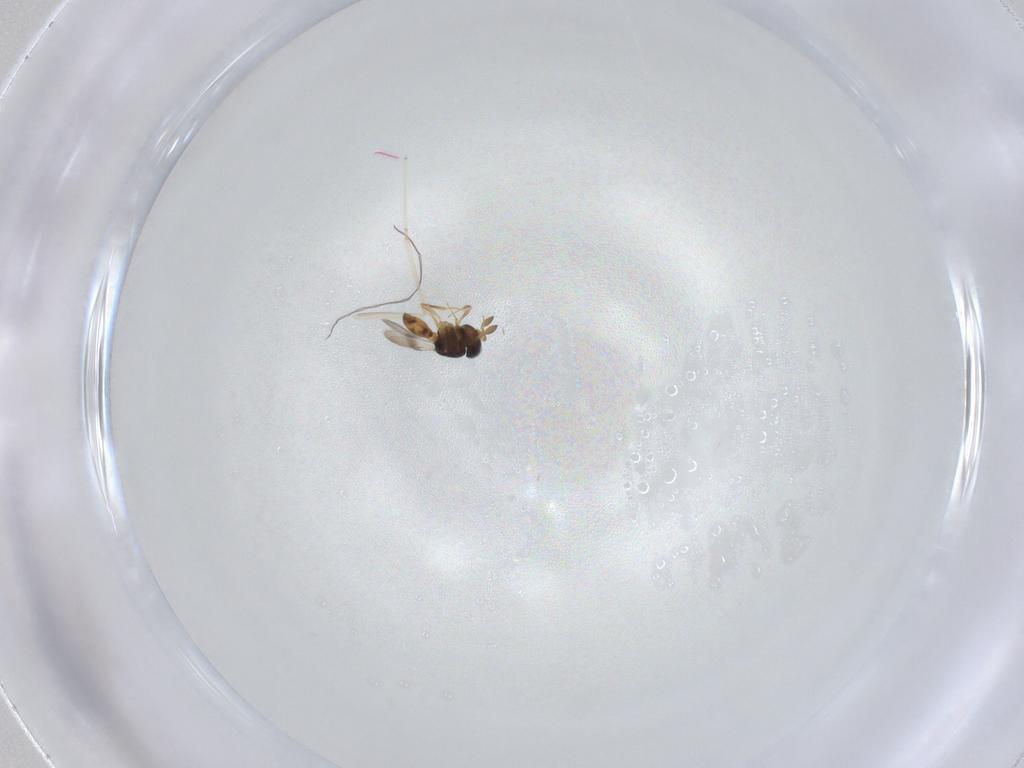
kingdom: Animalia
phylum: Arthropoda
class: Insecta
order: Hymenoptera
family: Scelionidae
